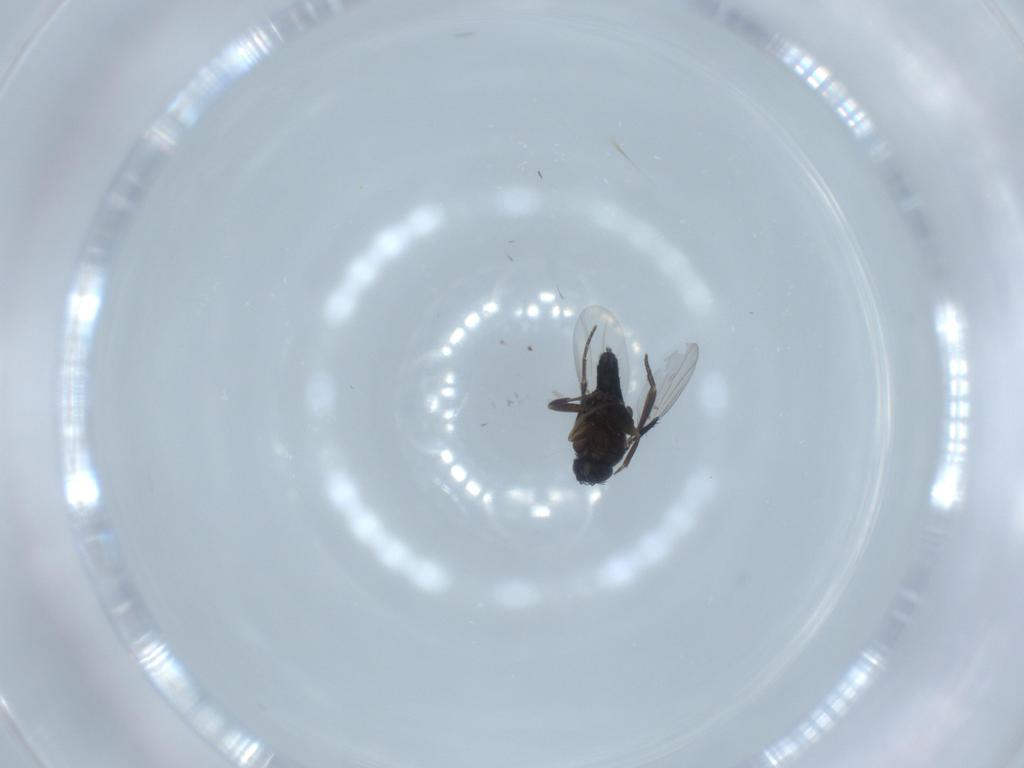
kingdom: Animalia
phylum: Arthropoda
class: Insecta
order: Diptera
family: Phoridae
